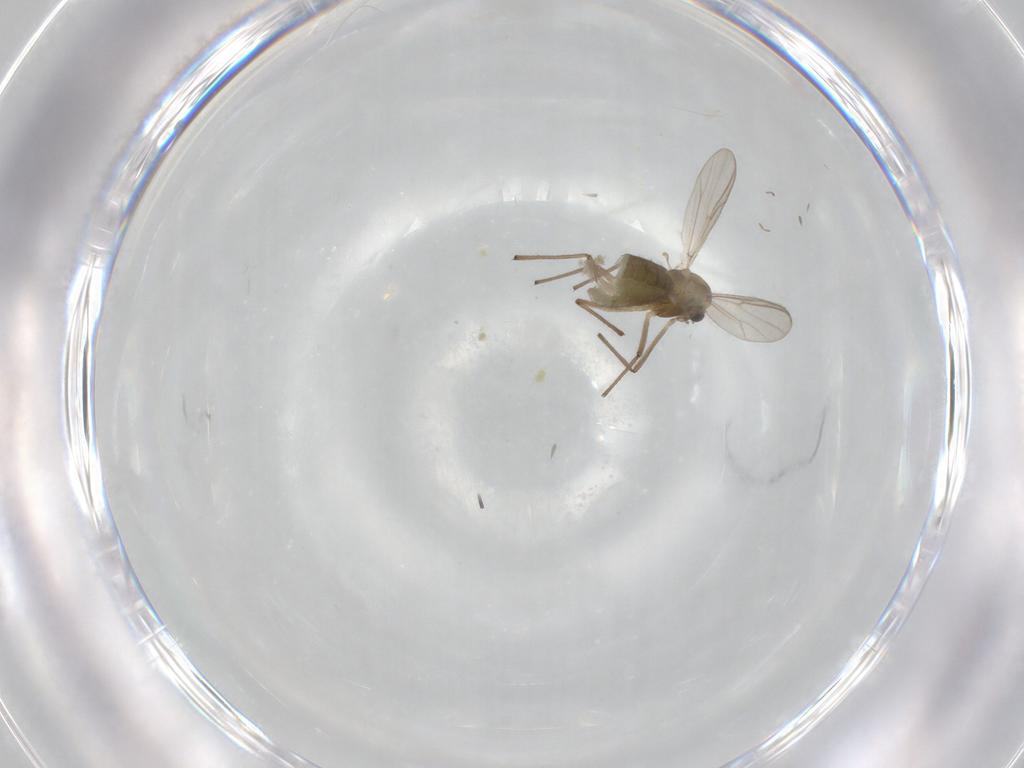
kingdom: Animalia
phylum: Arthropoda
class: Insecta
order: Diptera
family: Chironomidae
